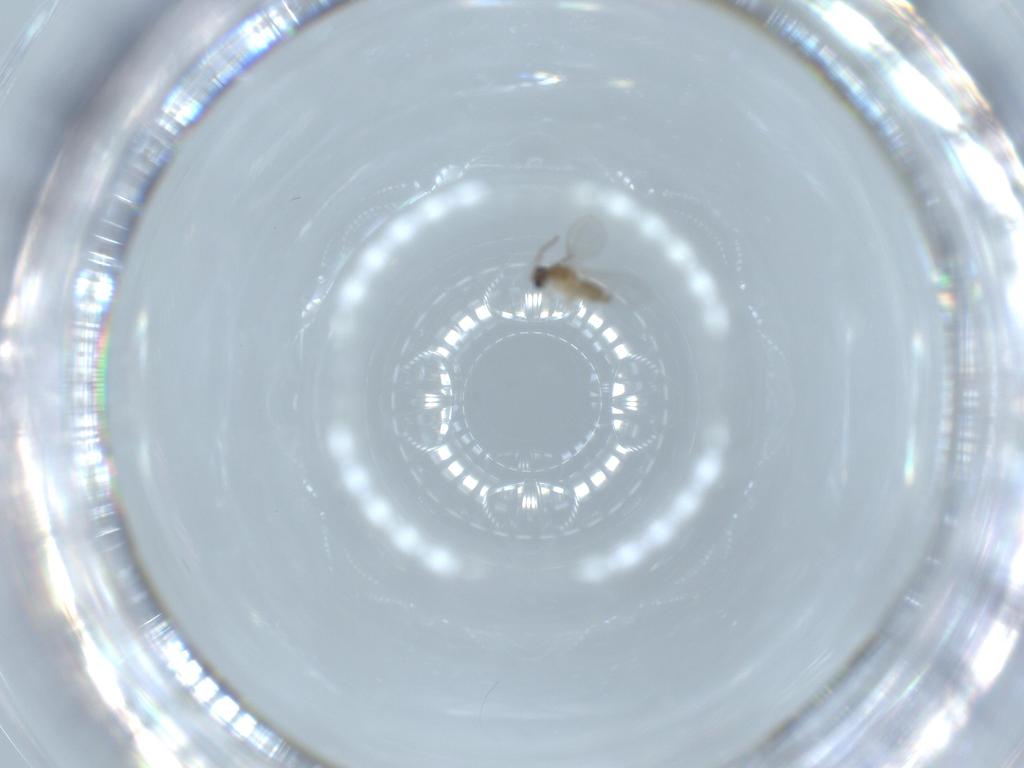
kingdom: Animalia
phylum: Arthropoda
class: Insecta
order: Diptera
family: Cecidomyiidae
